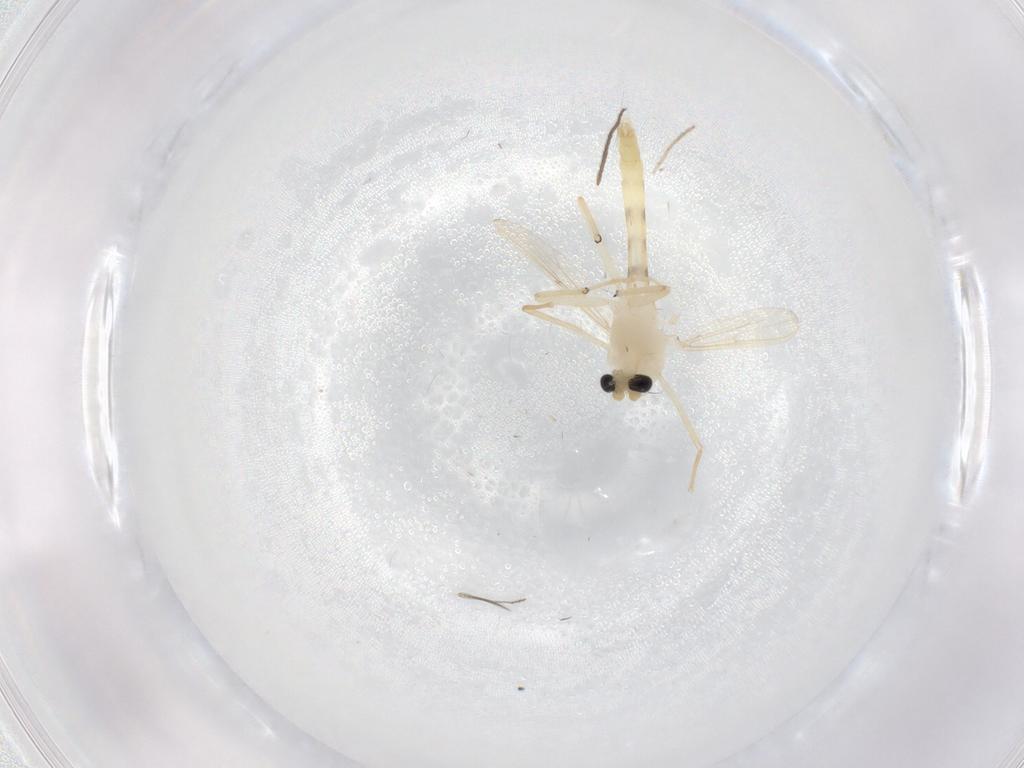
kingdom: Animalia
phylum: Arthropoda
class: Insecta
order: Diptera
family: Chironomidae
